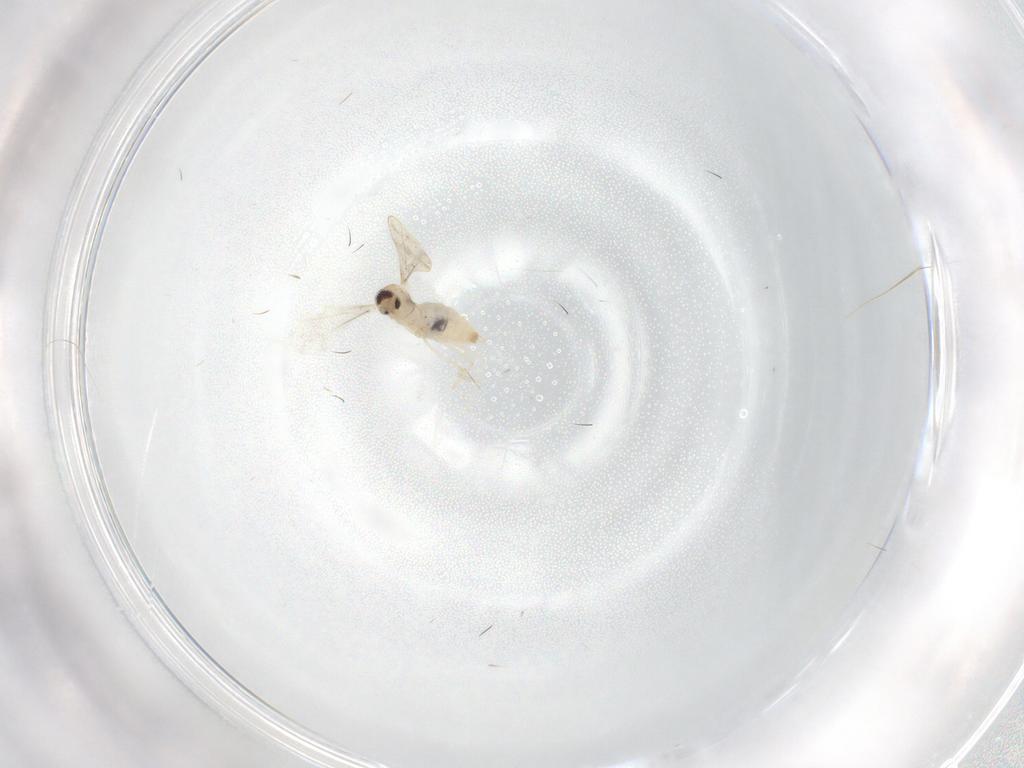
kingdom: Animalia
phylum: Arthropoda
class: Insecta
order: Diptera
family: Cecidomyiidae
